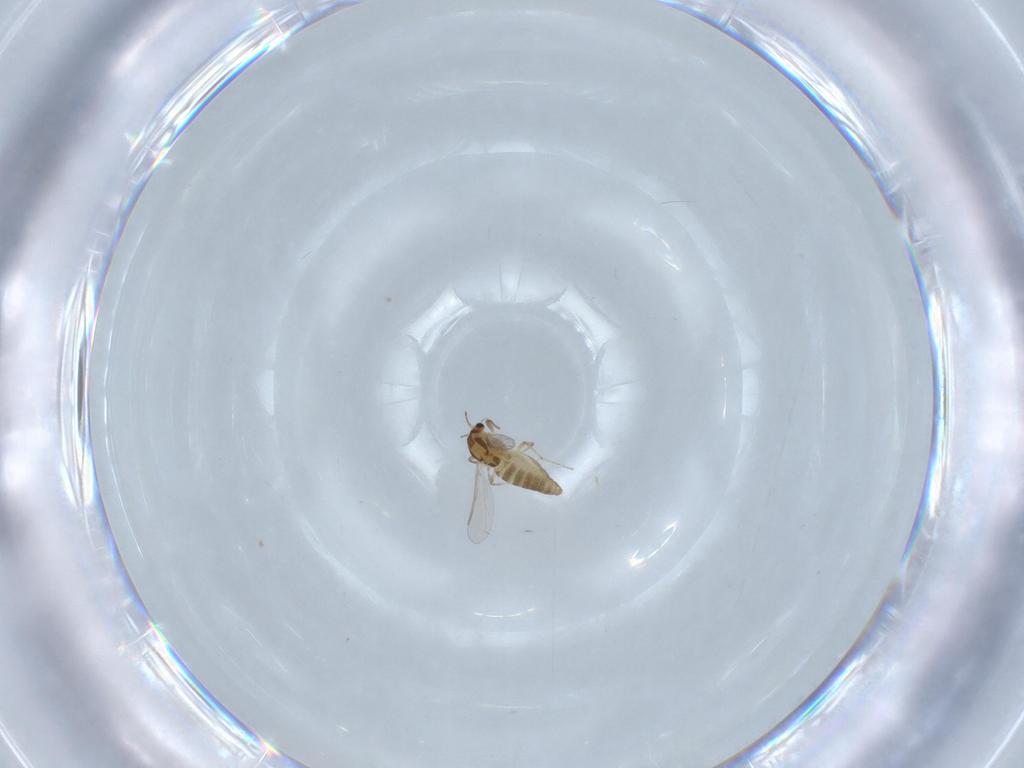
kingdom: Animalia
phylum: Arthropoda
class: Insecta
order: Diptera
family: Chironomidae
